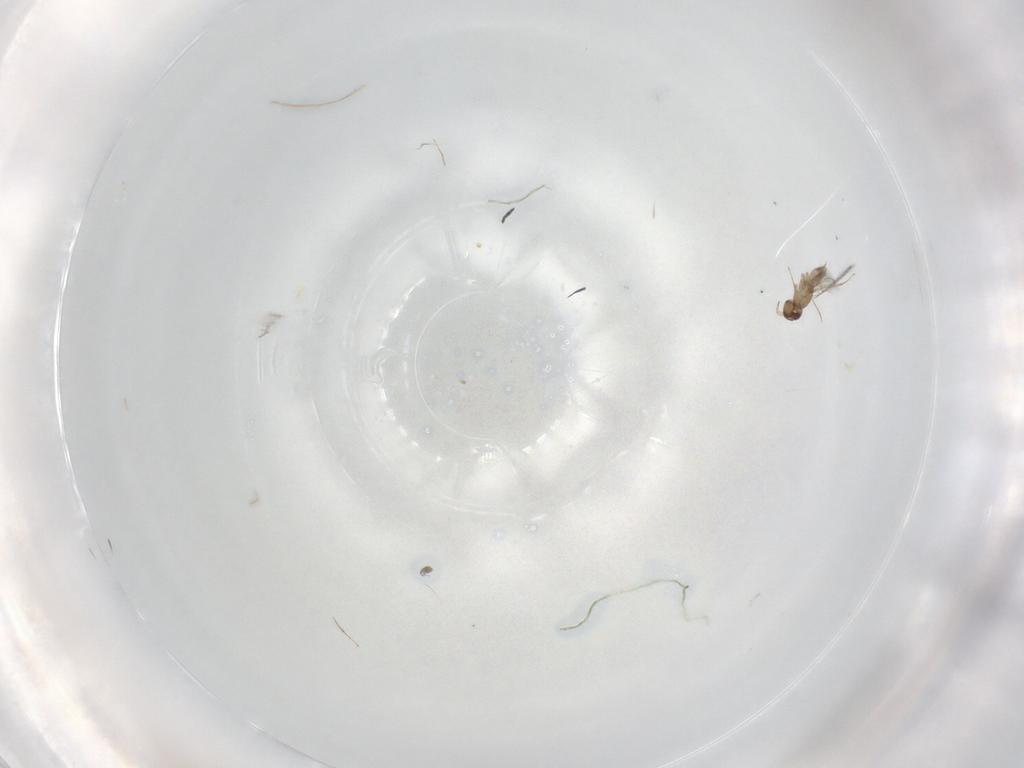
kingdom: Animalia
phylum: Arthropoda
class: Insecta
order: Hymenoptera
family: Mymaridae
